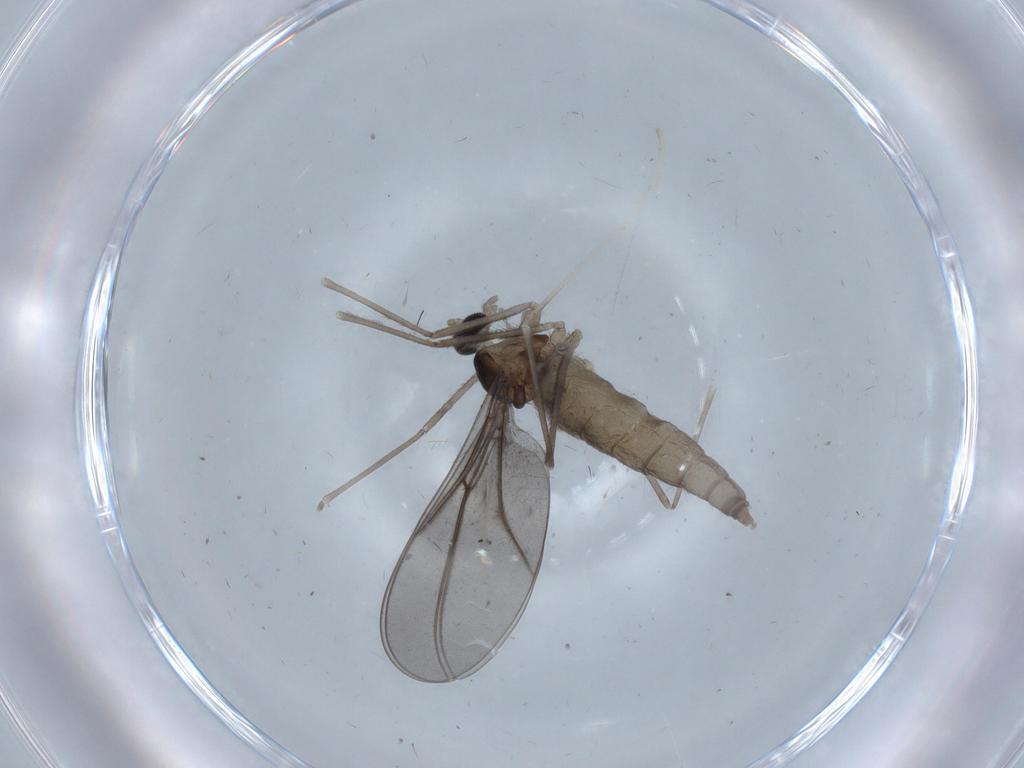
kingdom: Animalia
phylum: Arthropoda
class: Insecta
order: Diptera
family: Cecidomyiidae
